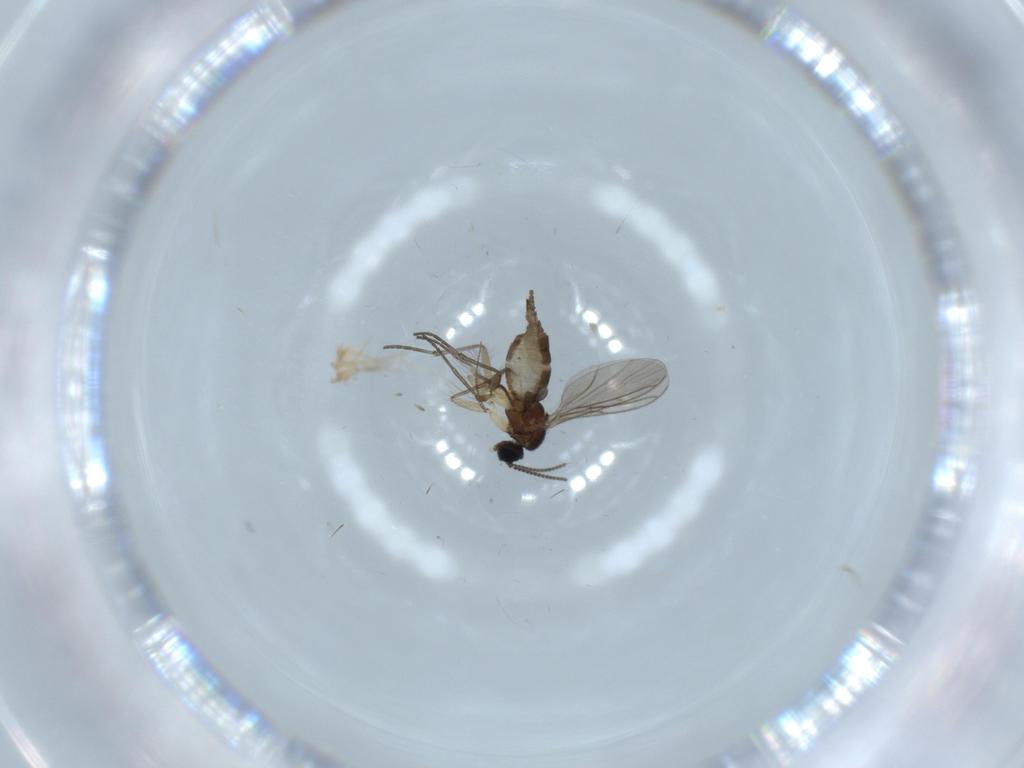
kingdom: Animalia
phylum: Arthropoda
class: Insecta
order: Diptera
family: Sciaridae
